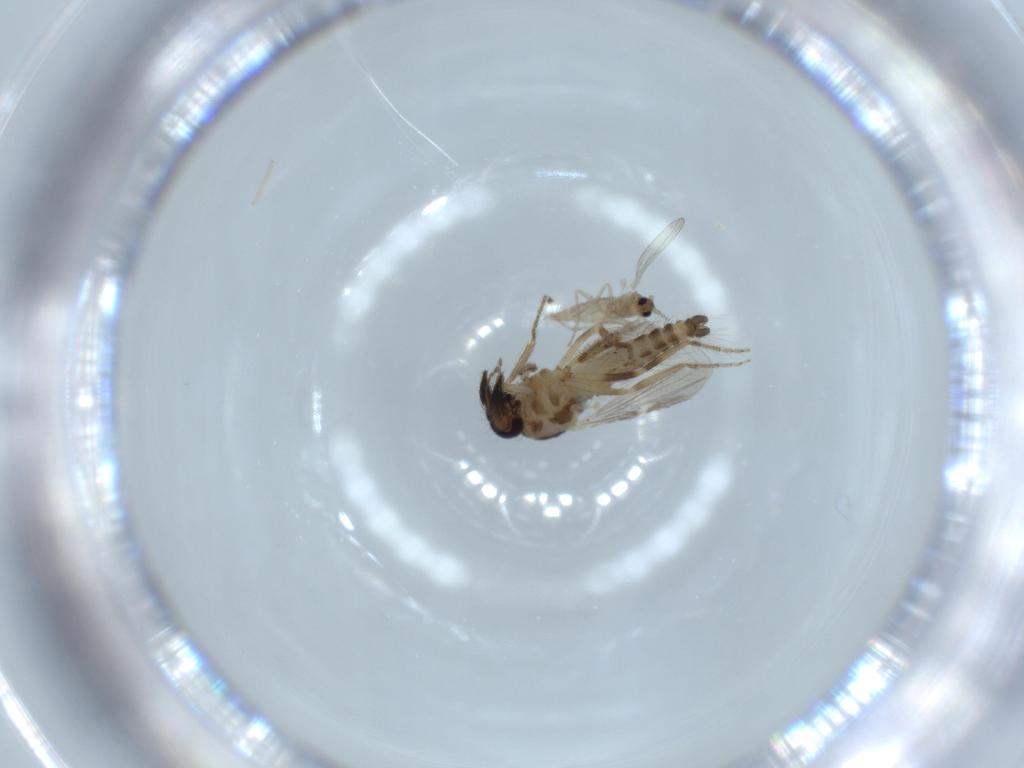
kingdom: Animalia
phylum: Arthropoda
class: Insecta
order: Diptera
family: Ceratopogonidae
